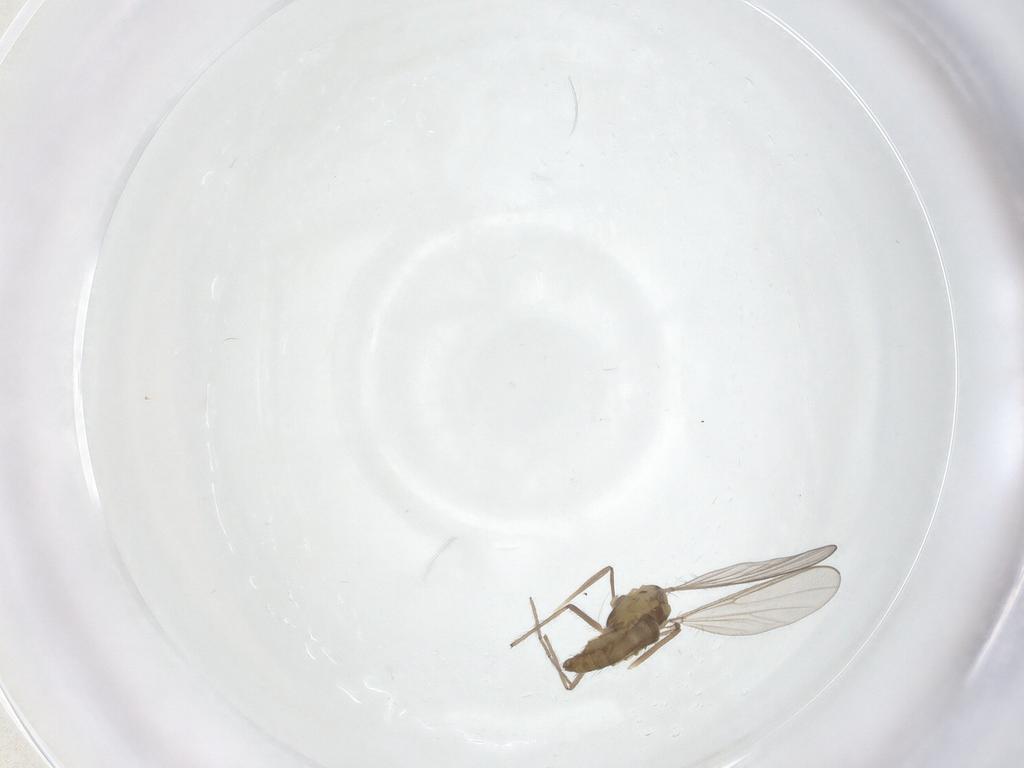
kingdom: Animalia
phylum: Arthropoda
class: Insecta
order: Diptera
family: Chironomidae
